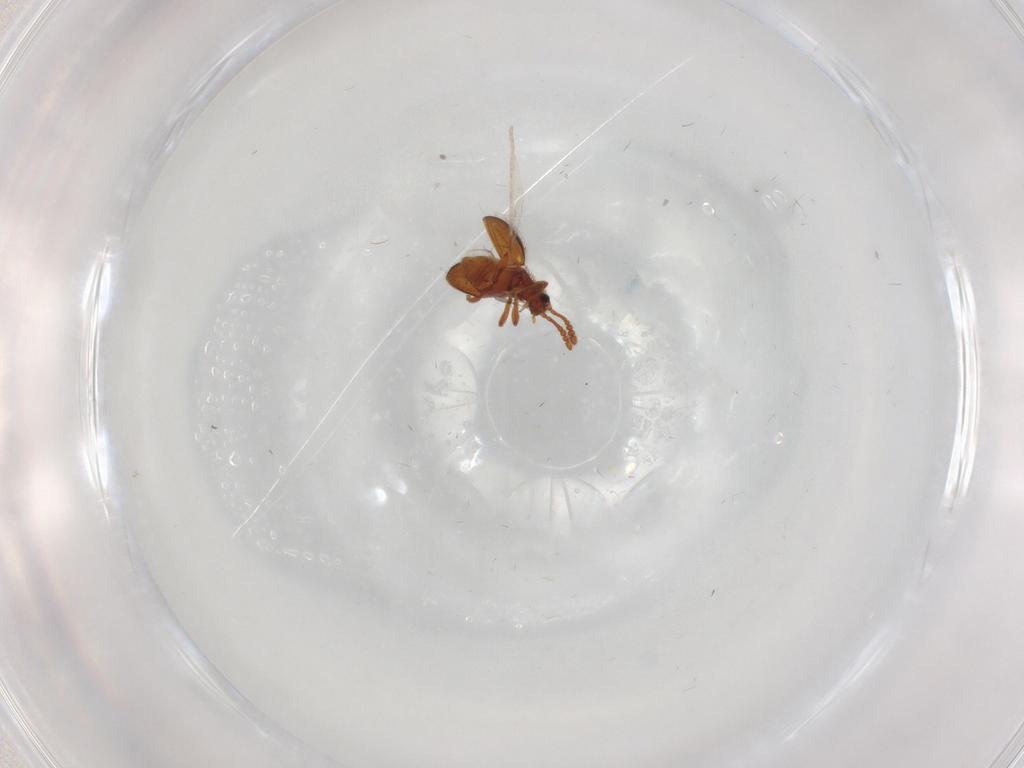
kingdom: Animalia
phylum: Arthropoda
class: Insecta
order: Coleoptera
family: Staphylinidae
